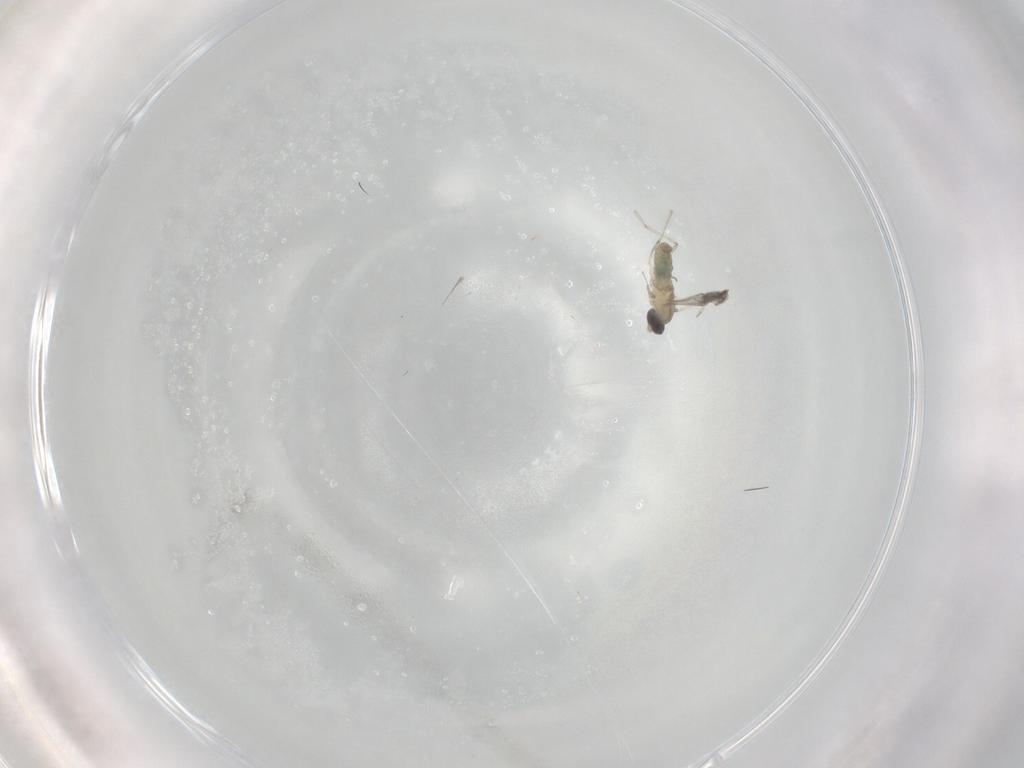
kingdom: Animalia
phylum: Arthropoda
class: Insecta
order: Diptera
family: Cecidomyiidae
